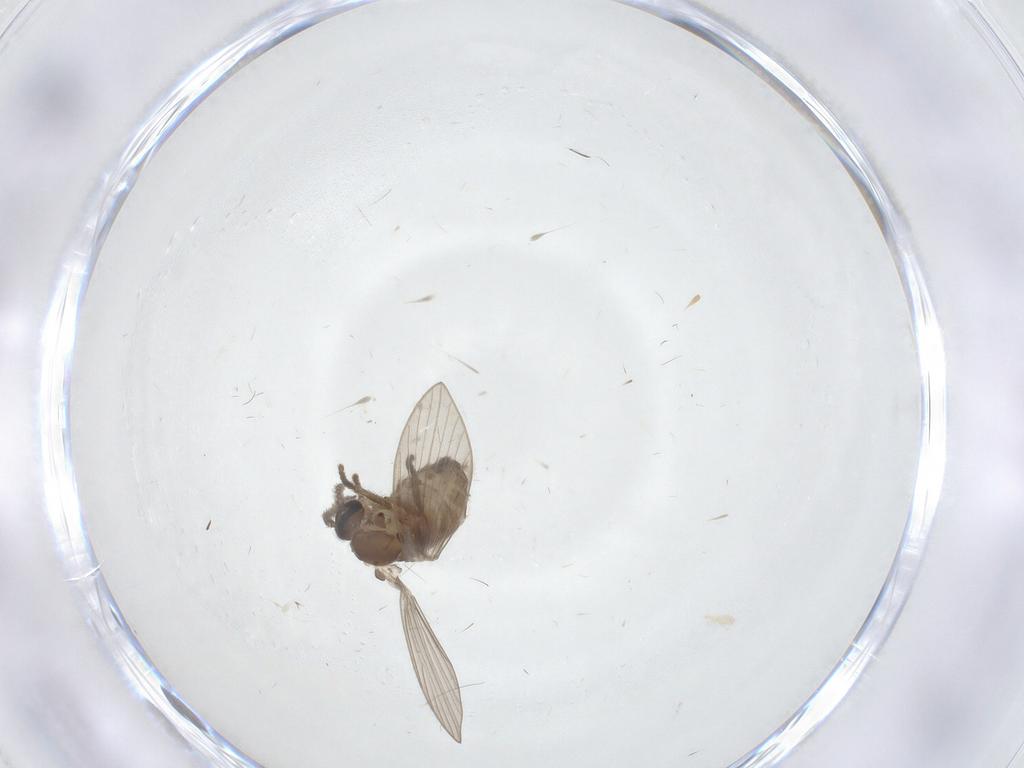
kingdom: Animalia
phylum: Arthropoda
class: Insecta
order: Diptera
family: Psychodidae
